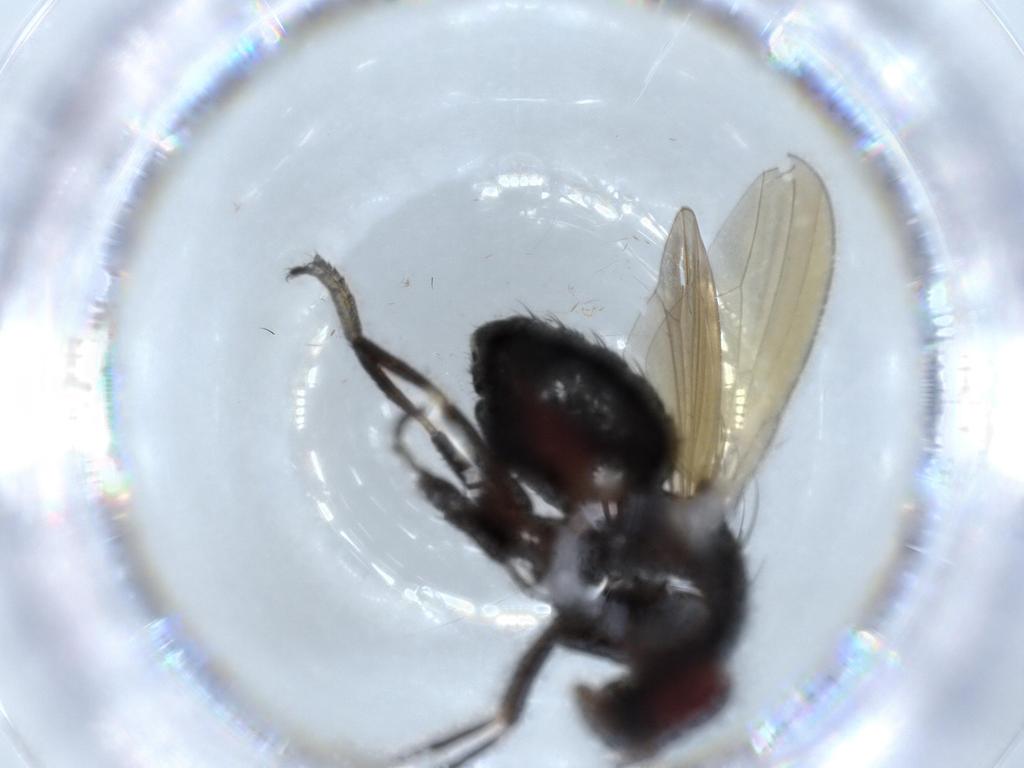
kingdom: Animalia
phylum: Arthropoda
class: Insecta
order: Diptera
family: Lauxaniidae
